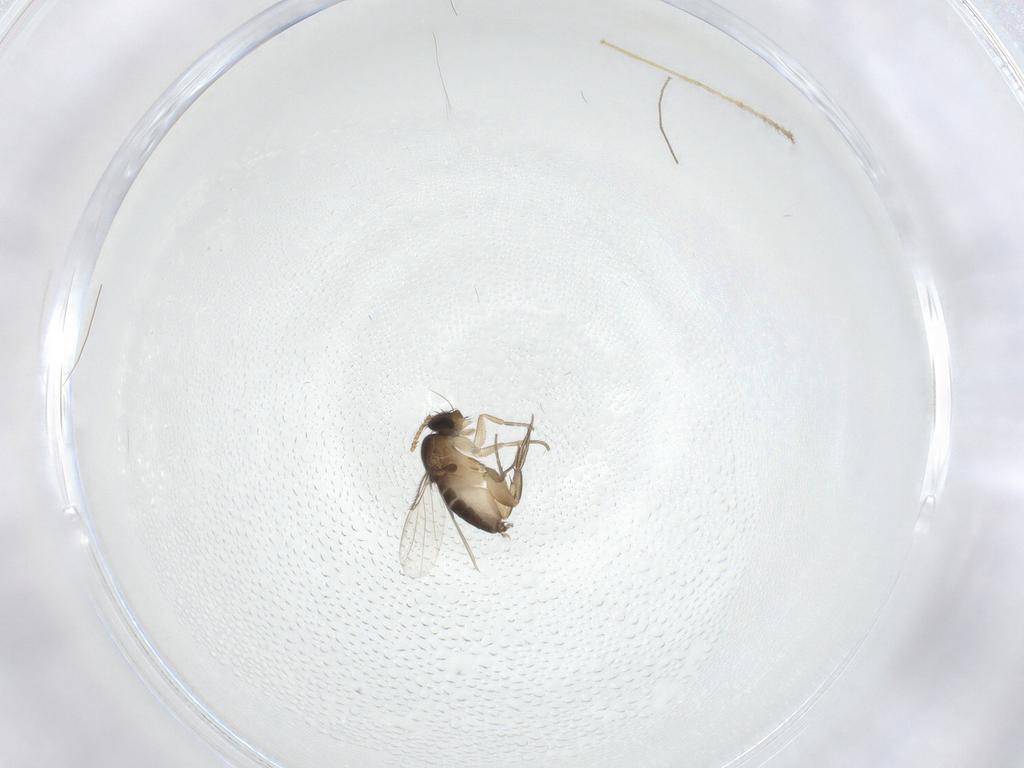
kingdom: Animalia
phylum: Arthropoda
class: Insecta
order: Diptera
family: Phoridae
